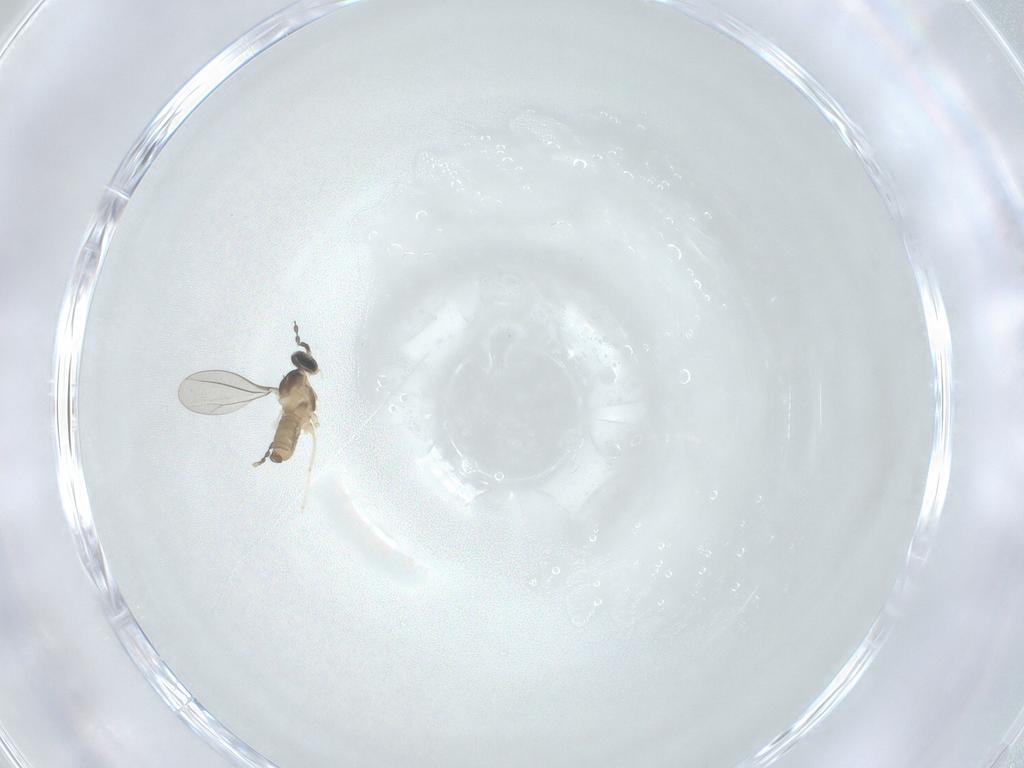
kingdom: Animalia
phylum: Arthropoda
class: Insecta
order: Diptera
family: Cecidomyiidae
